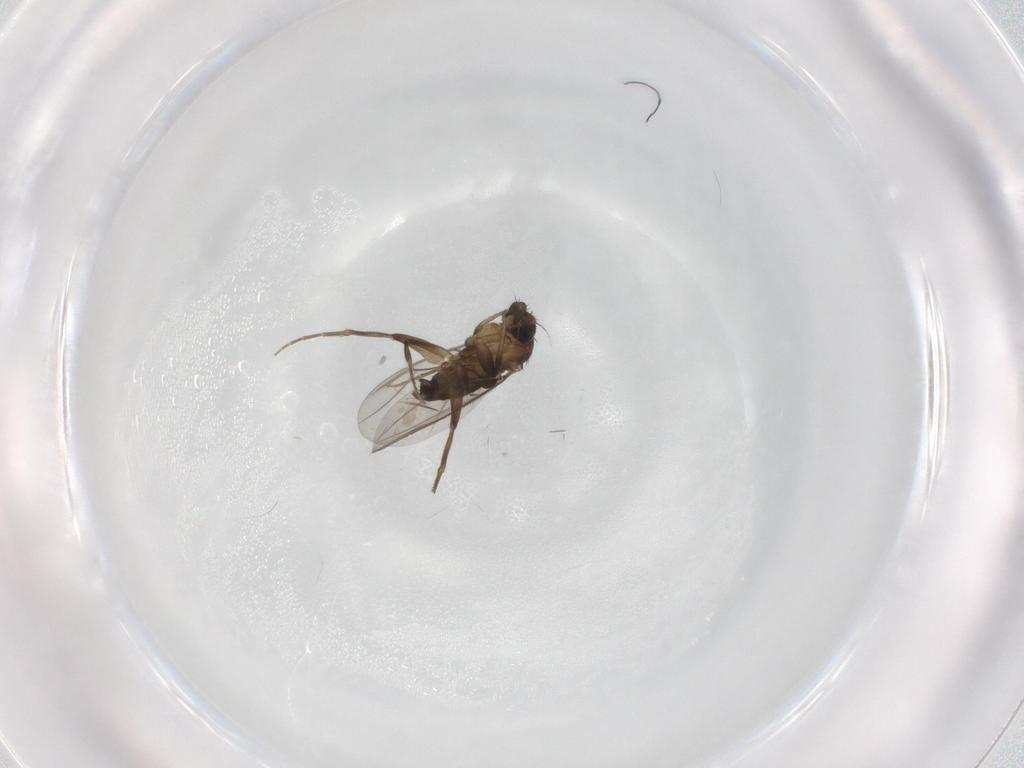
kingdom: Animalia
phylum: Arthropoda
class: Insecta
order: Diptera
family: Phoridae
